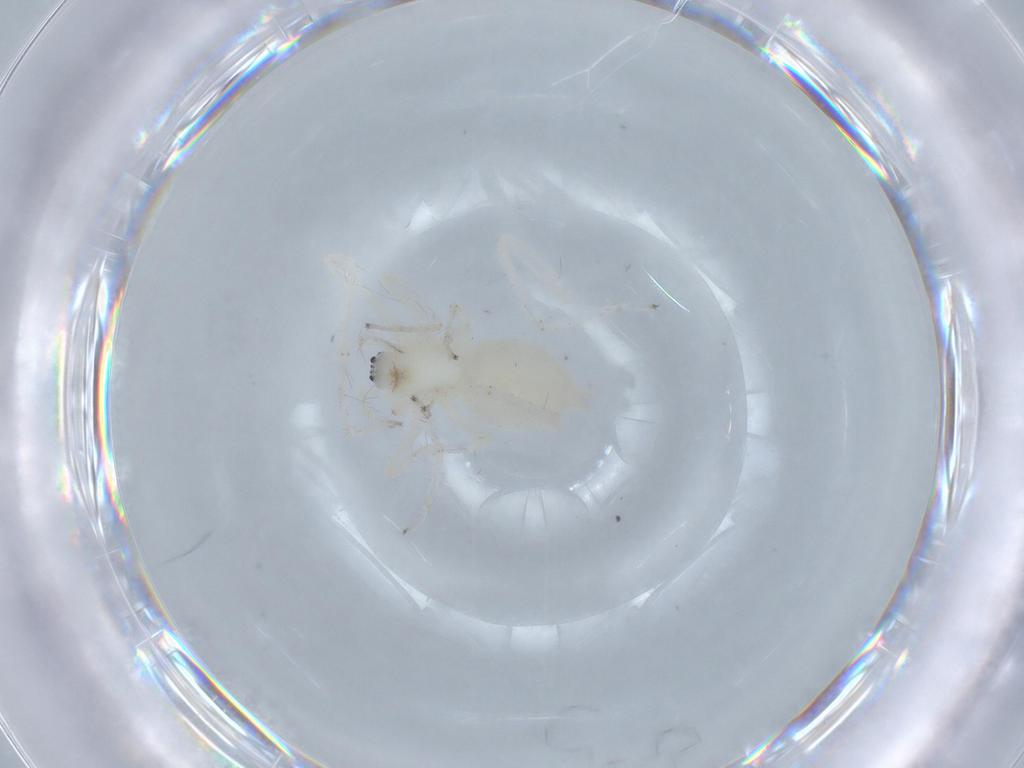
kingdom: Animalia
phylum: Arthropoda
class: Arachnida
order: Araneae
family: Anyphaenidae
